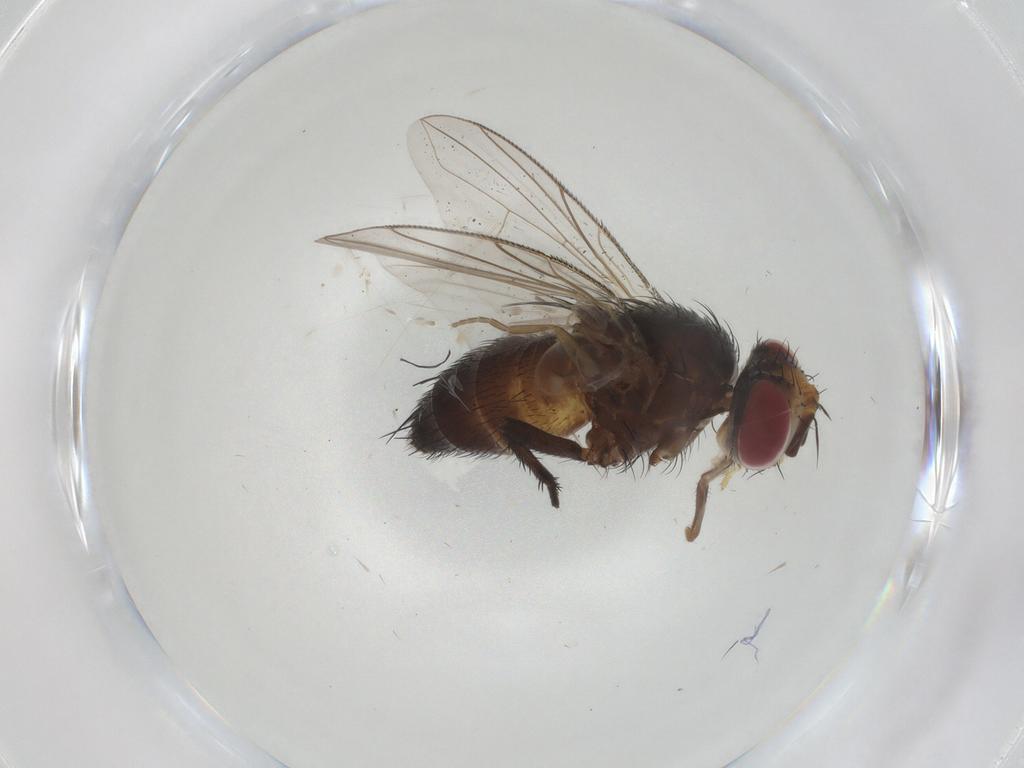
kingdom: Animalia
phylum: Arthropoda
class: Insecta
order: Diptera
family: Tachinidae
